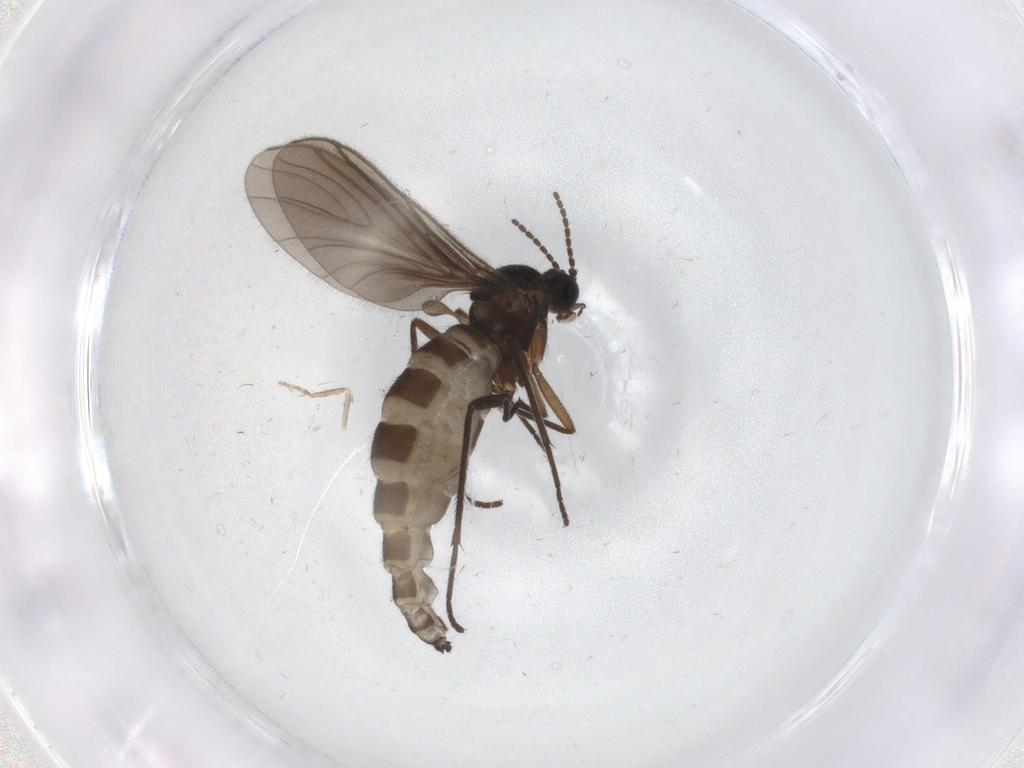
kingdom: Animalia
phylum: Arthropoda
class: Insecta
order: Diptera
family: Sciaridae
